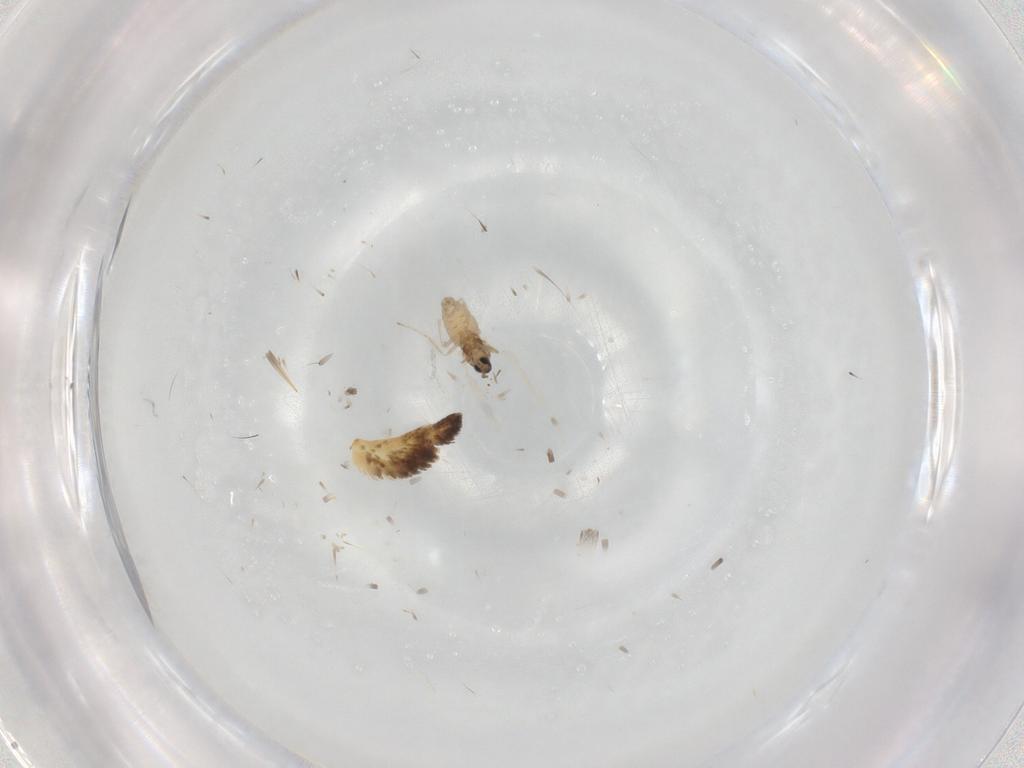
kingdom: Animalia
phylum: Arthropoda
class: Insecta
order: Diptera
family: Cecidomyiidae
